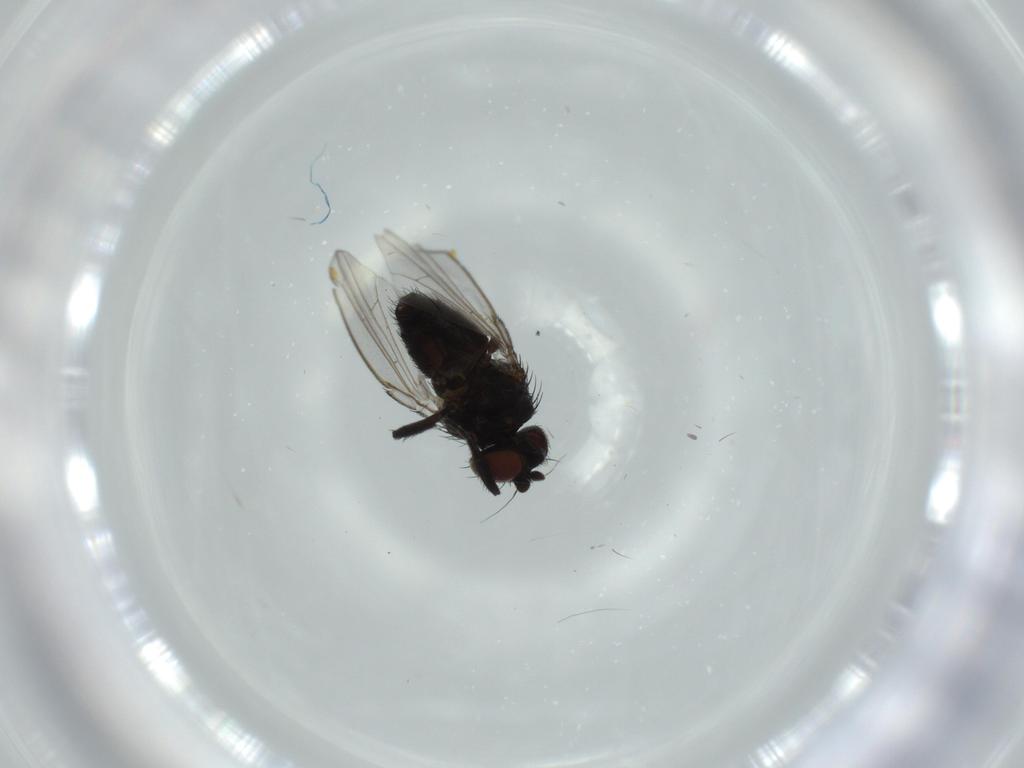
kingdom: Animalia
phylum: Arthropoda
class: Insecta
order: Diptera
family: Milichiidae
